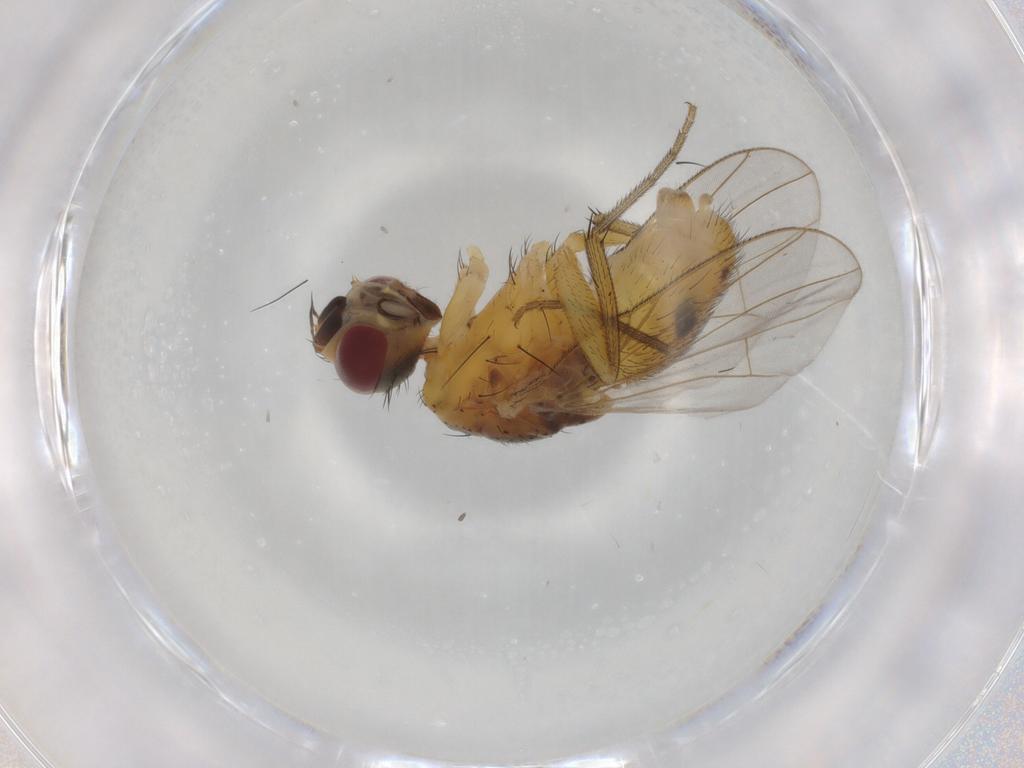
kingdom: Animalia
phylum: Arthropoda
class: Insecta
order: Diptera
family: Muscidae
